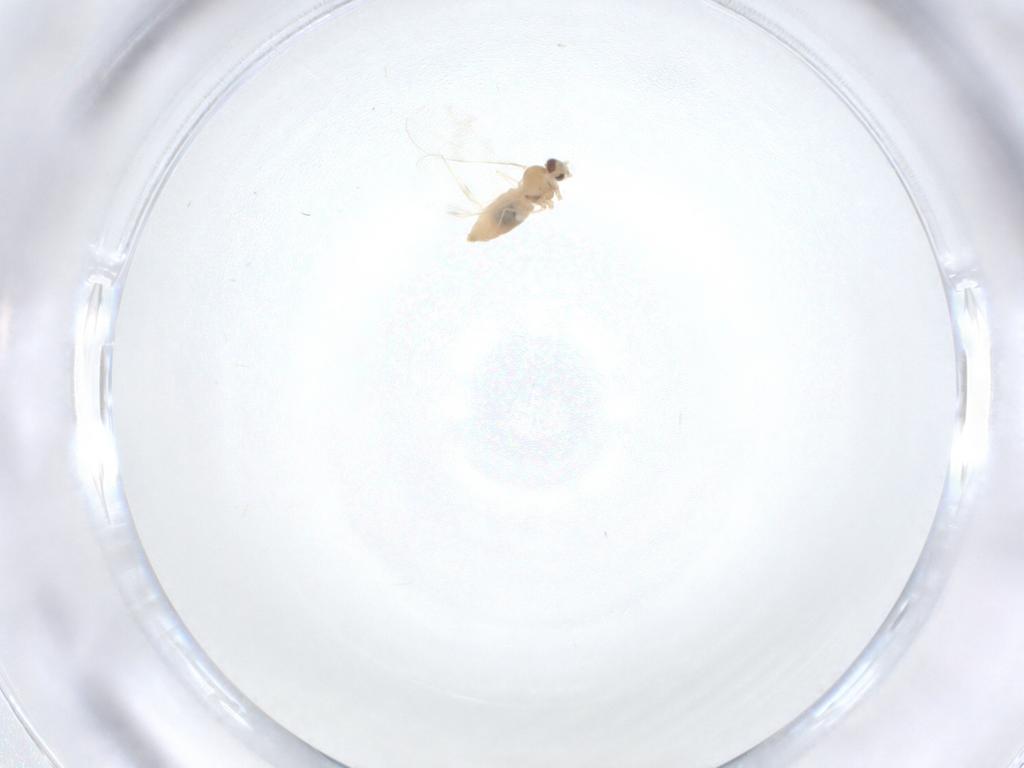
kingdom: Animalia
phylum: Arthropoda
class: Insecta
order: Diptera
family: Cecidomyiidae
